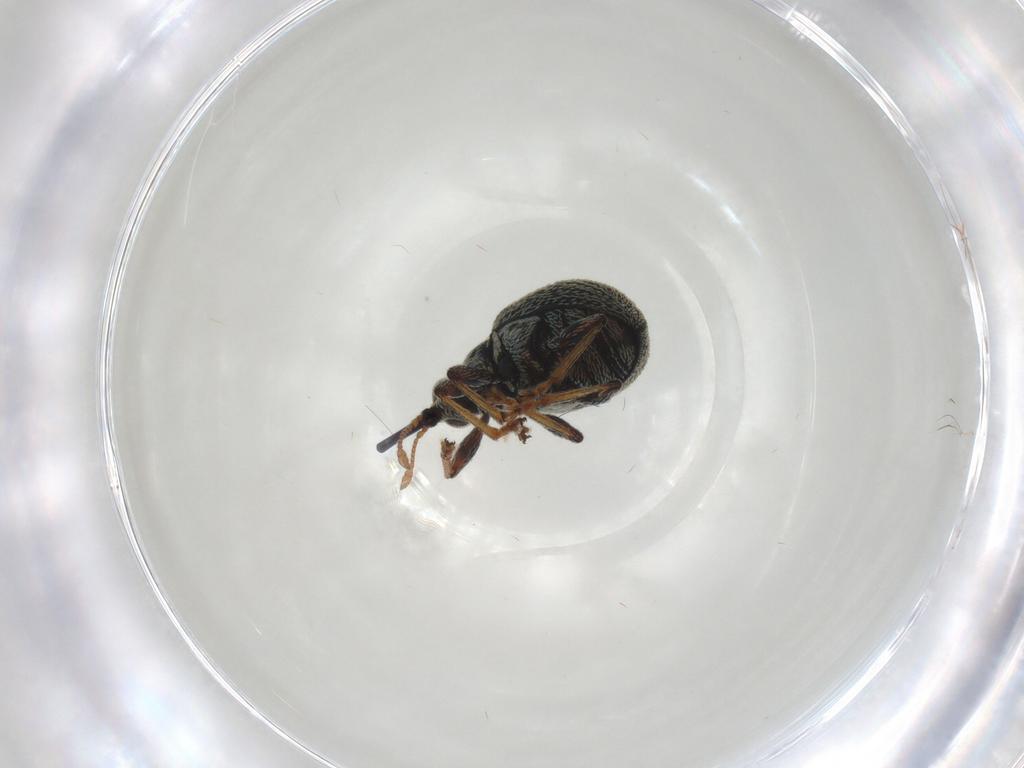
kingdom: Animalia
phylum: Arthropoda
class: Insecta
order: Coleoptera
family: Brentidae
